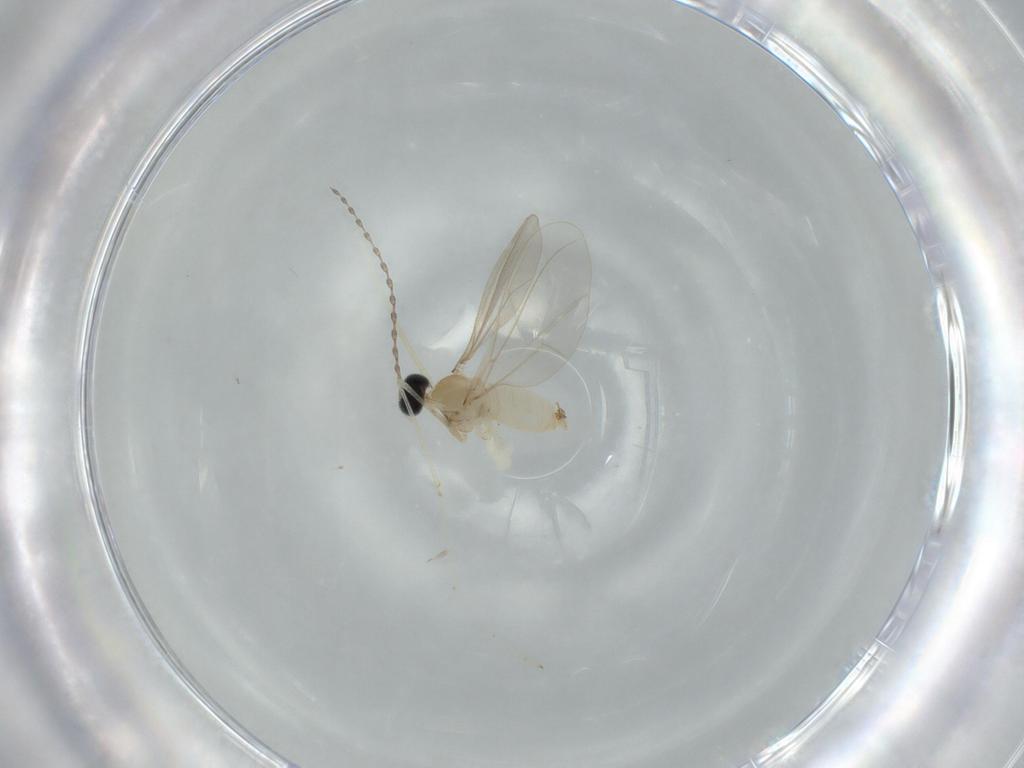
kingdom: Animalia
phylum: Arthropoda
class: Insecta
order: Diptera
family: Cecidomyiidae
